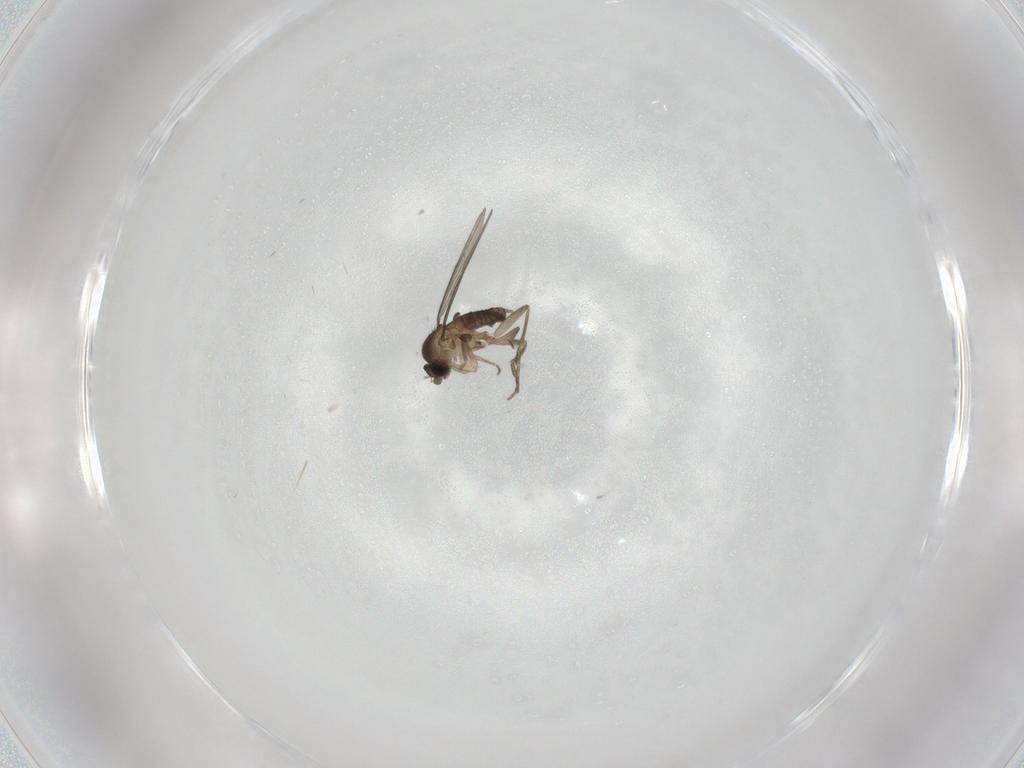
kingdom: Animalia
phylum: Arthropoda
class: Insecta
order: Diptera
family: Phoridae
